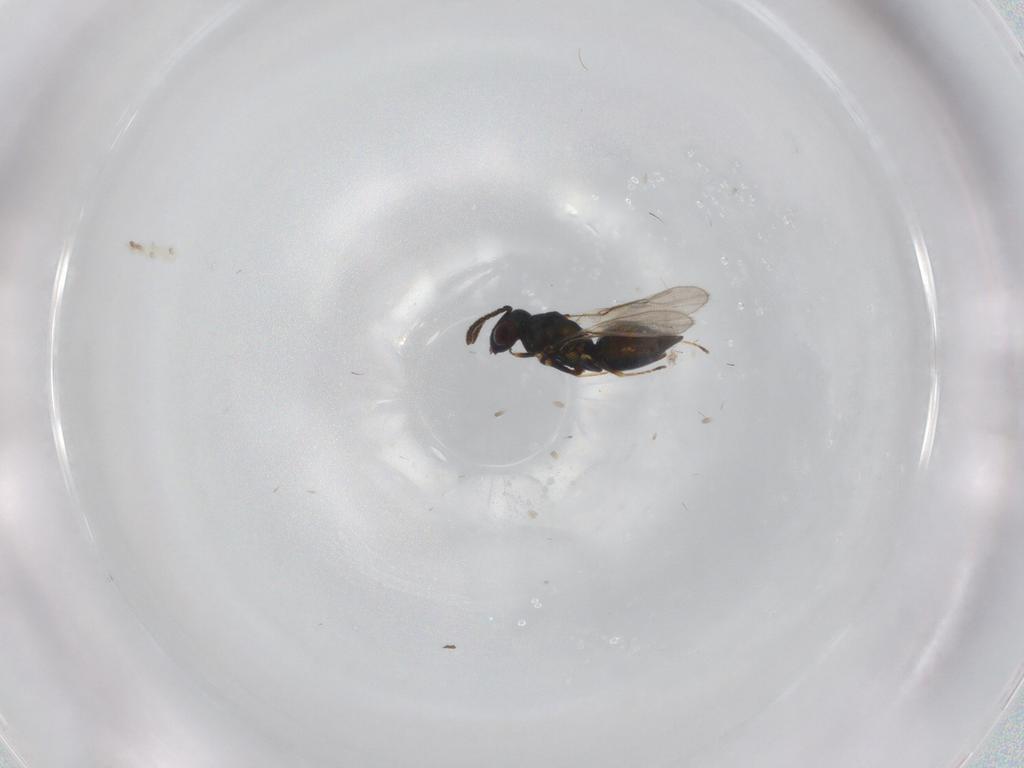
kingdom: Animalia
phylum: Arthropoda
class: Insecta
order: Hymenoptera
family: Pteromalidae
